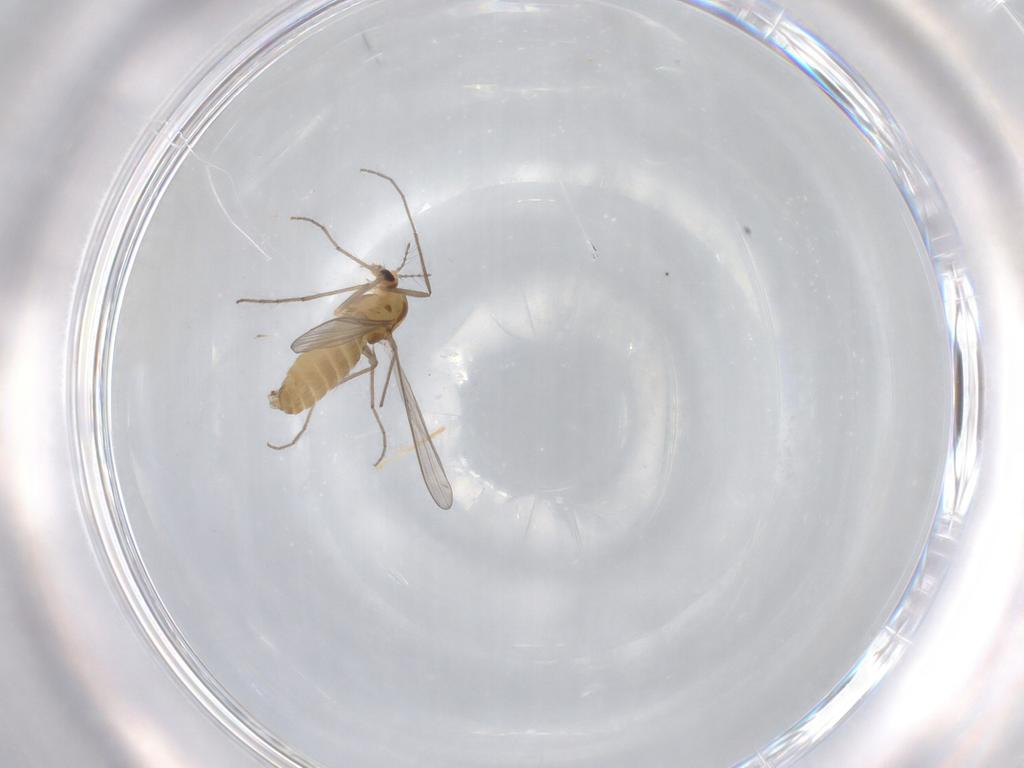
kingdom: Animalia
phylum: Arthropoda
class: Insecta
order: Diptera
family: Chironomidae
